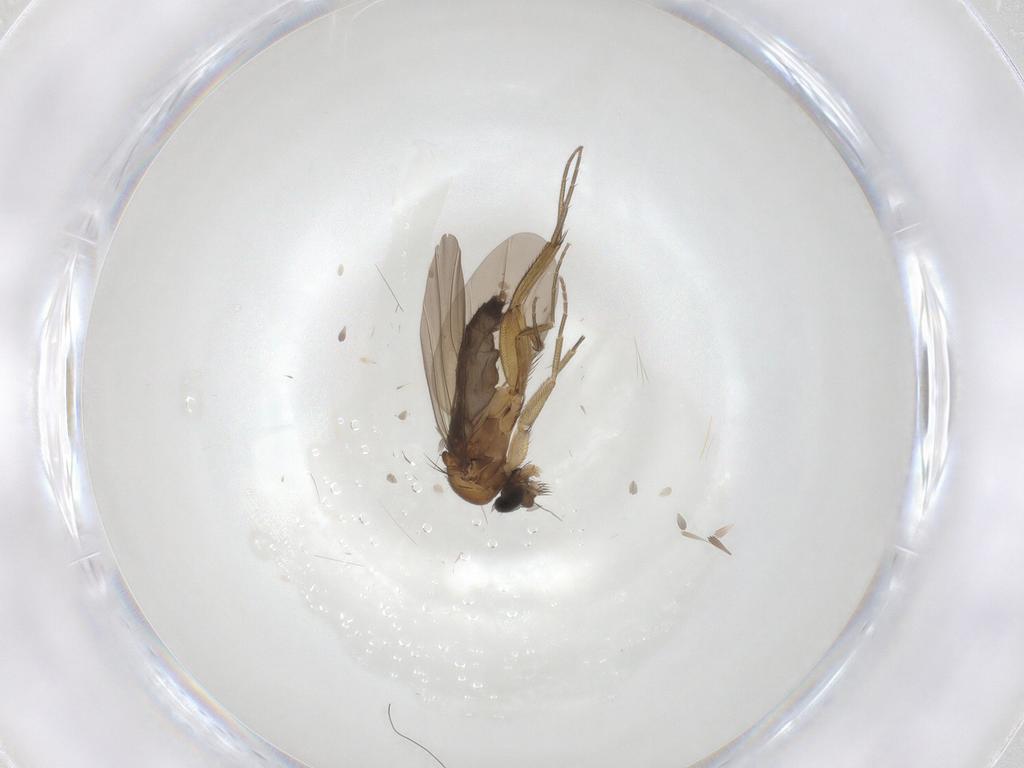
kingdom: Animalia
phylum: Arthropoda
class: Insecta
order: Diptera
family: Phoridae
